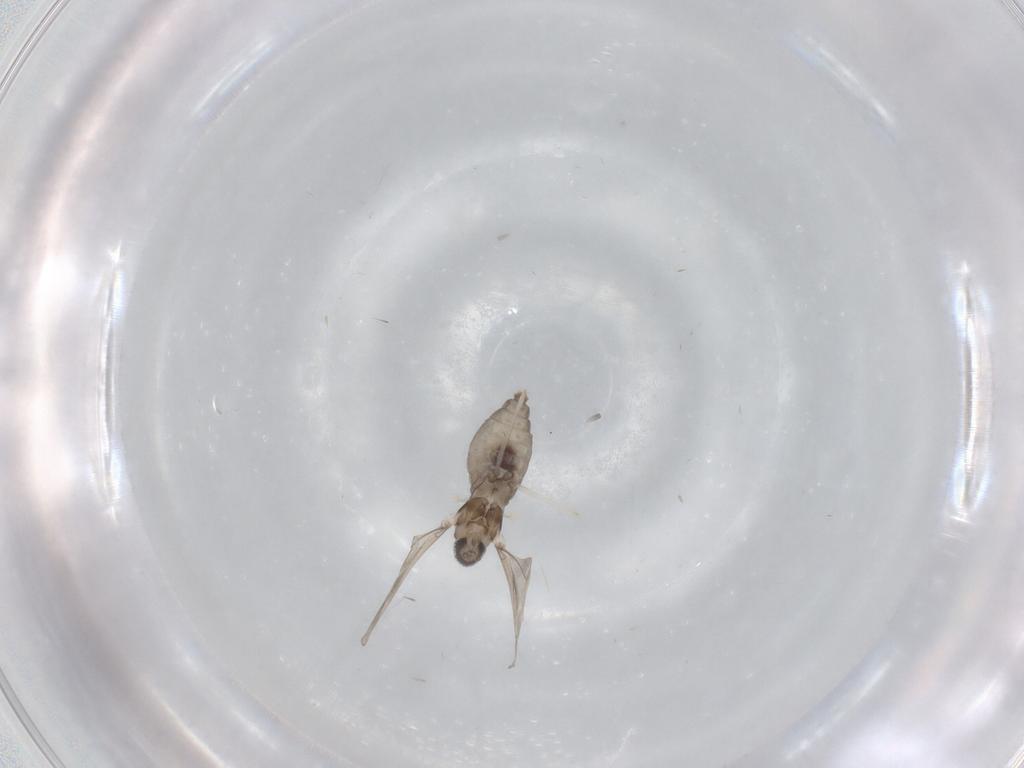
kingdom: Animalia
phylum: Arthropoda
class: Insecta
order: Diptera
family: Cecidomyiidae
